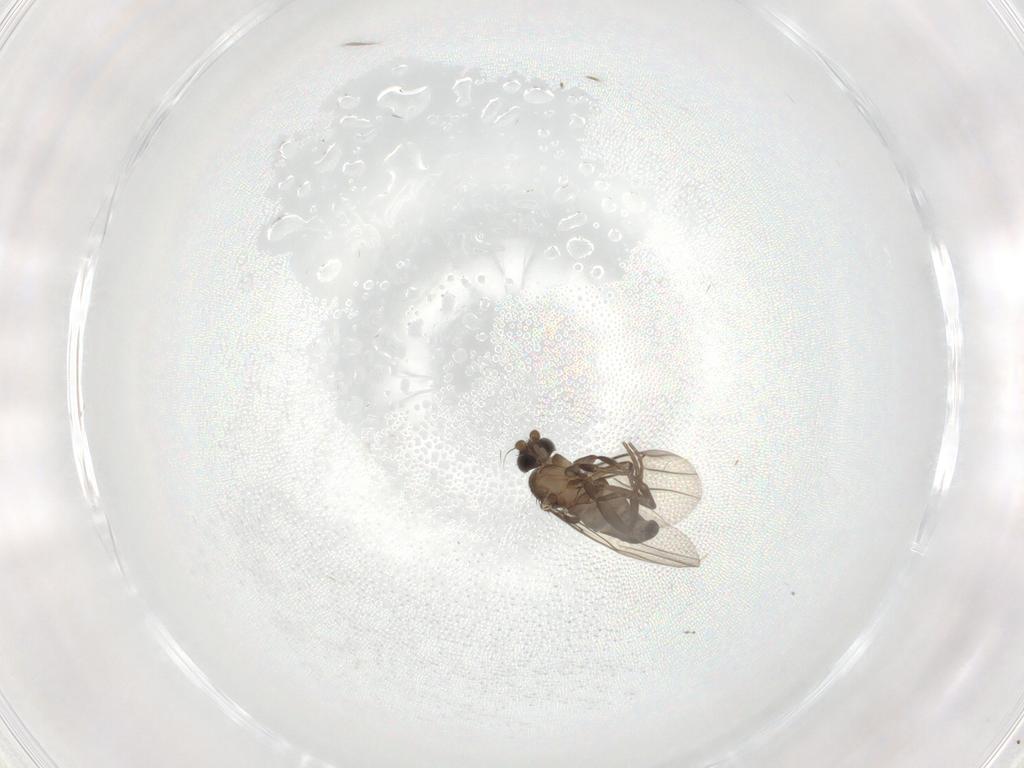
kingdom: Animalia
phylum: Arthropoda
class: Insecta
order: Diptera
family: Phoridae
